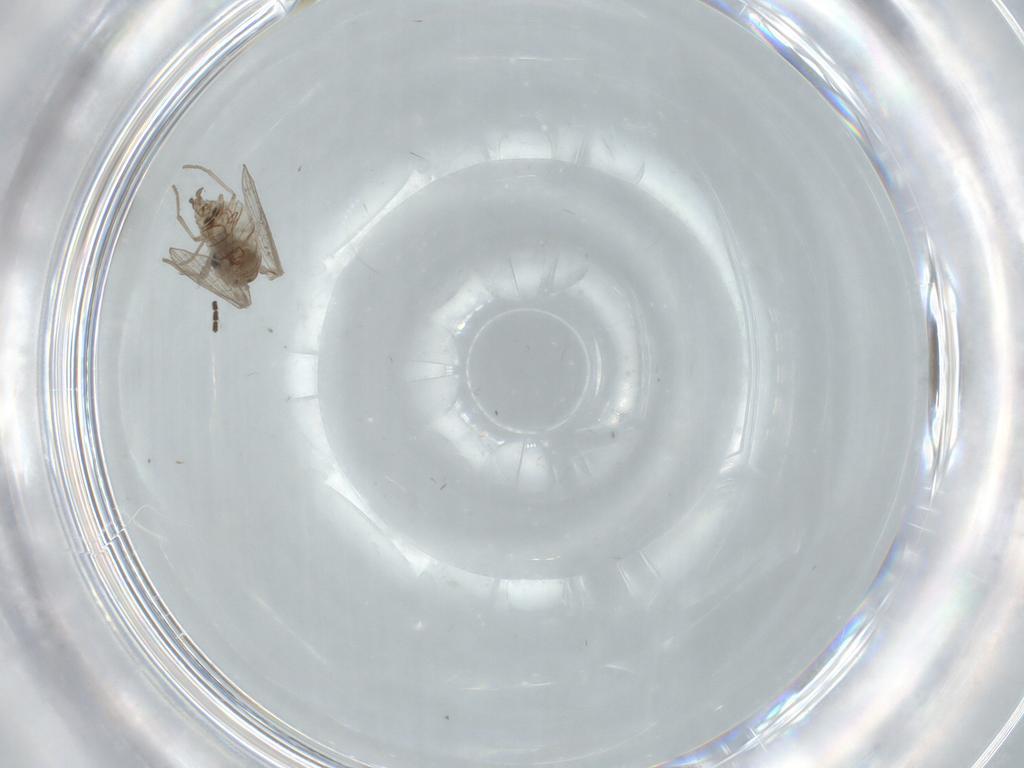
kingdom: Animalia
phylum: Arthropoda
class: Insecta
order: Diptera
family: Psychodidae
